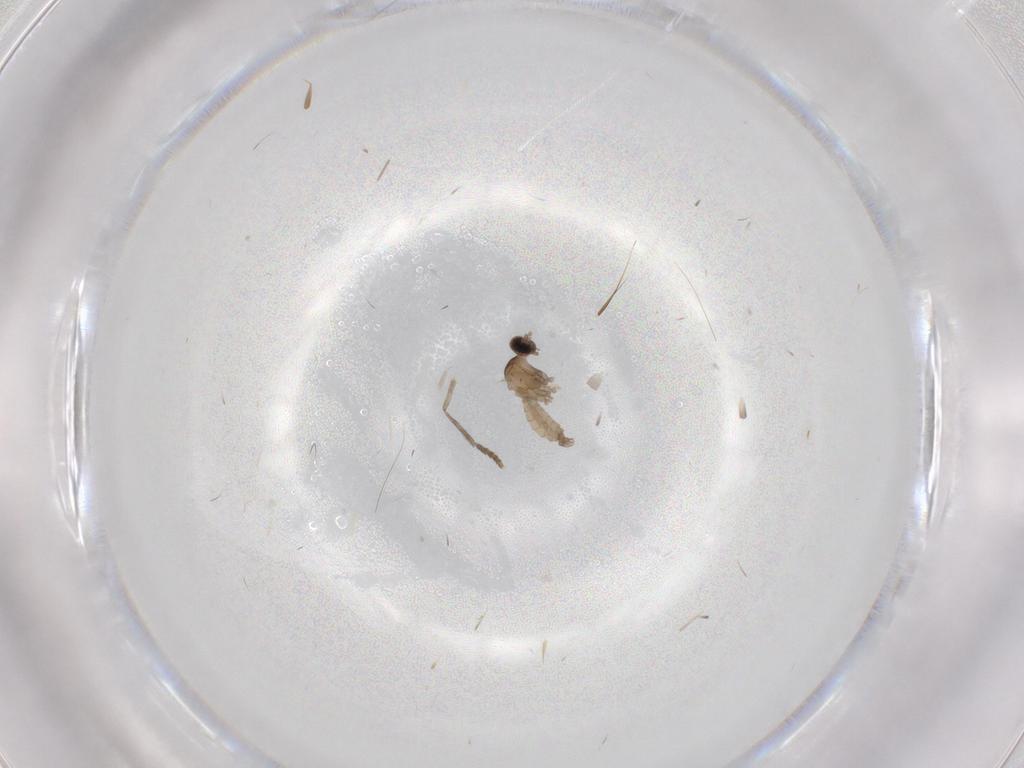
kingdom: Animalia
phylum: Arthropoda
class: Insecta
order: Diptera
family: Cecidomyiidae
